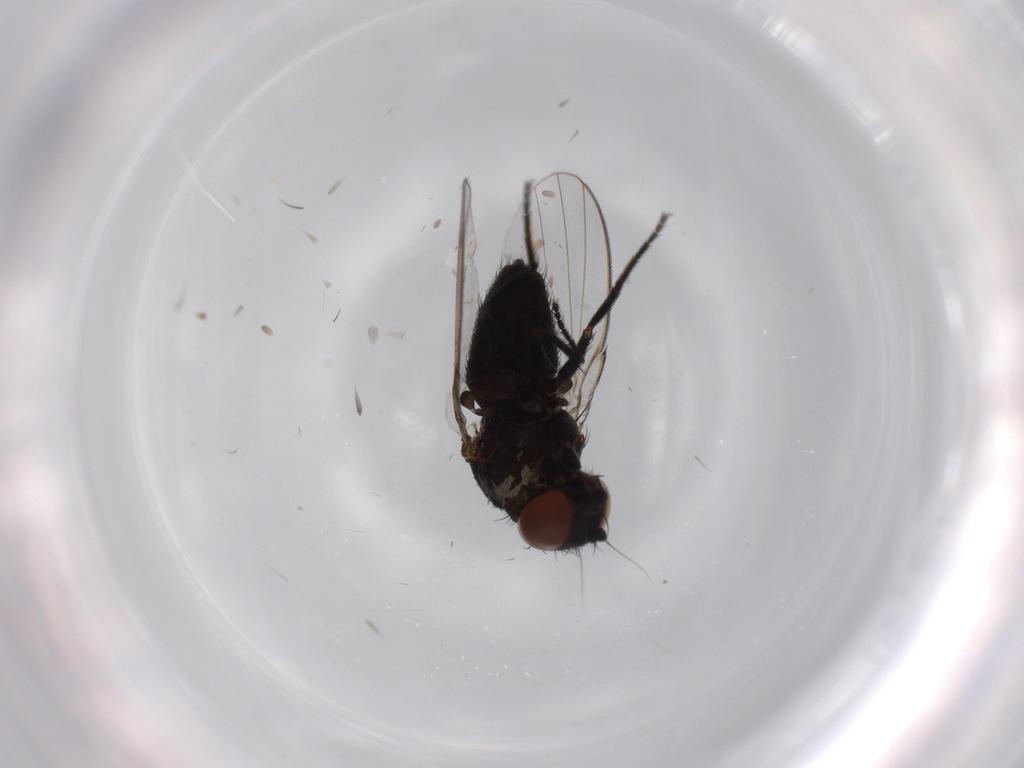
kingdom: Animalia
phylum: Arthropoda
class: Insecta
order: Diptera
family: Milichiidae
